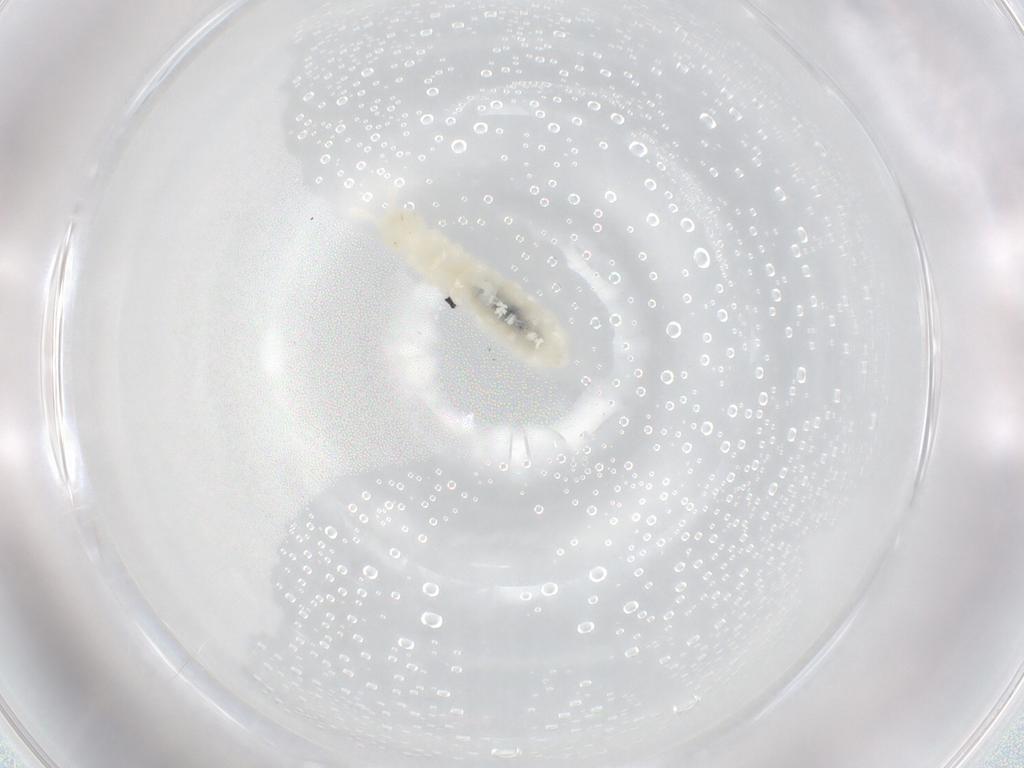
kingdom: Animalia
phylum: Arthropoda
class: Collembola
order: Poduromorpha
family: Onychiuridae
